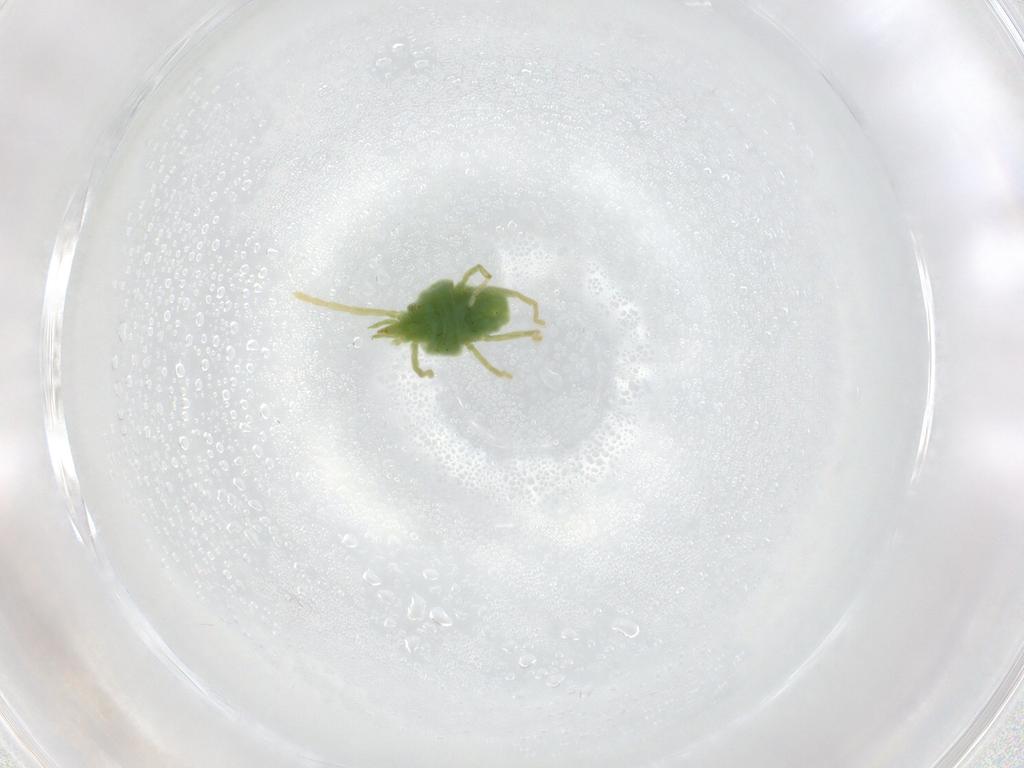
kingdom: Animalia
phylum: Arthropoda
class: Arachnida
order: Trombidiformes
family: Erythraeidae
